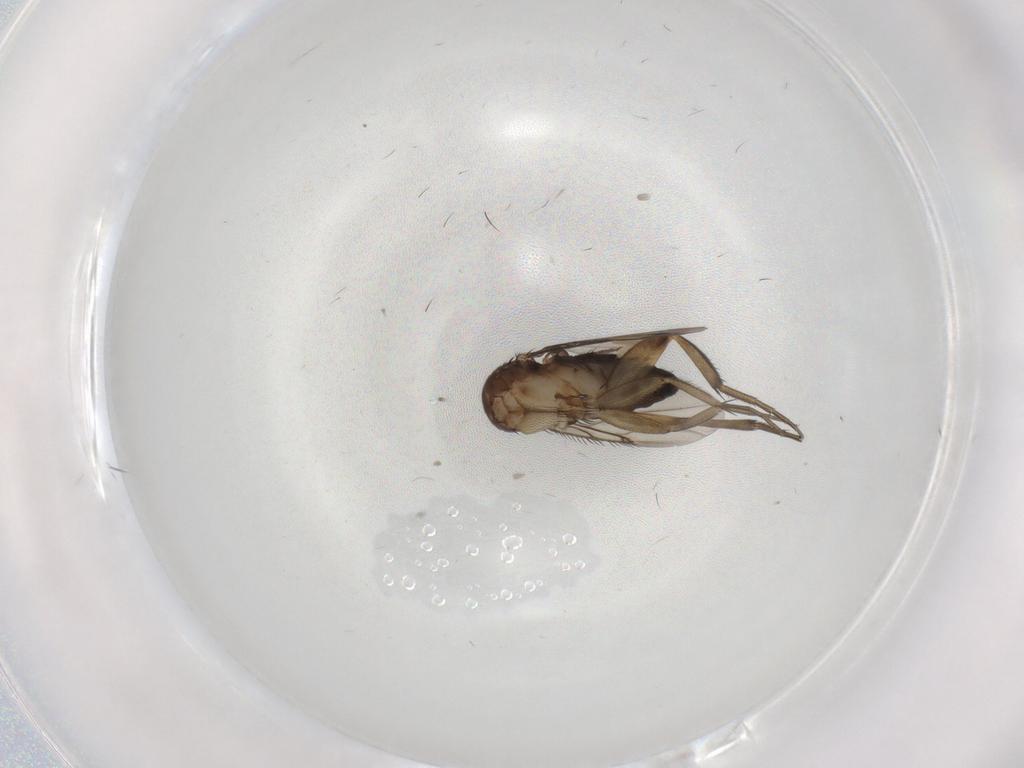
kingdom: Animalia
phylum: Arthropoda
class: Insecta
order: Diptera
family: Phoridae
